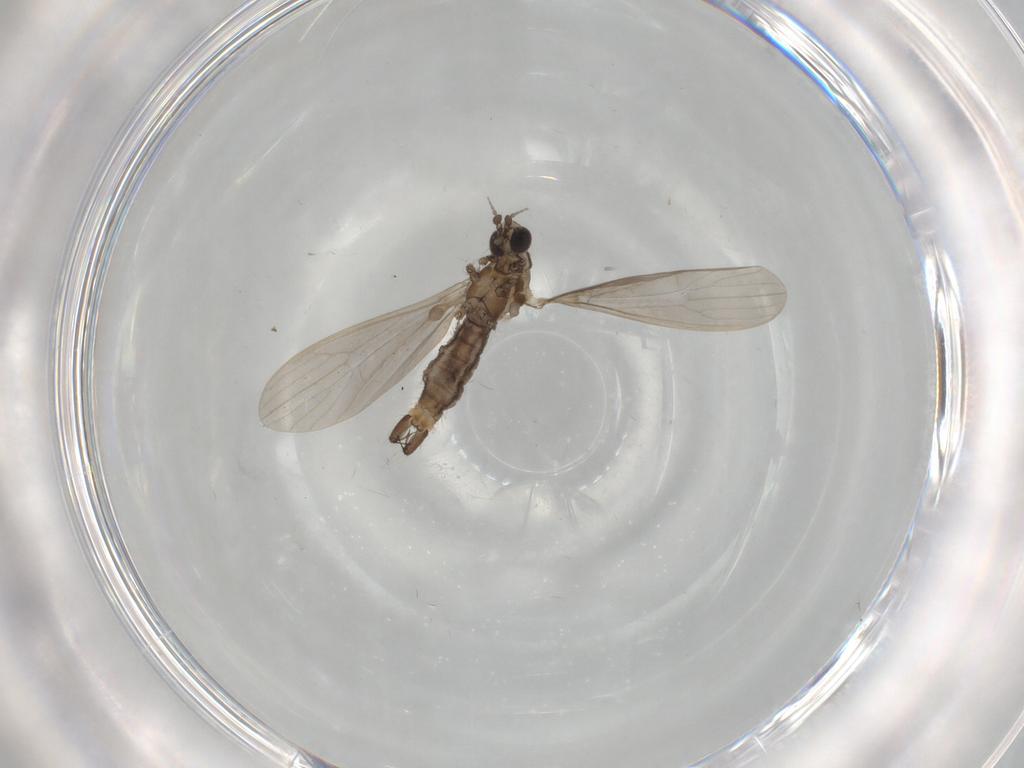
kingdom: Animalia
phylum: Arthropoda
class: Insecta
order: Diptera
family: Limoniidae
